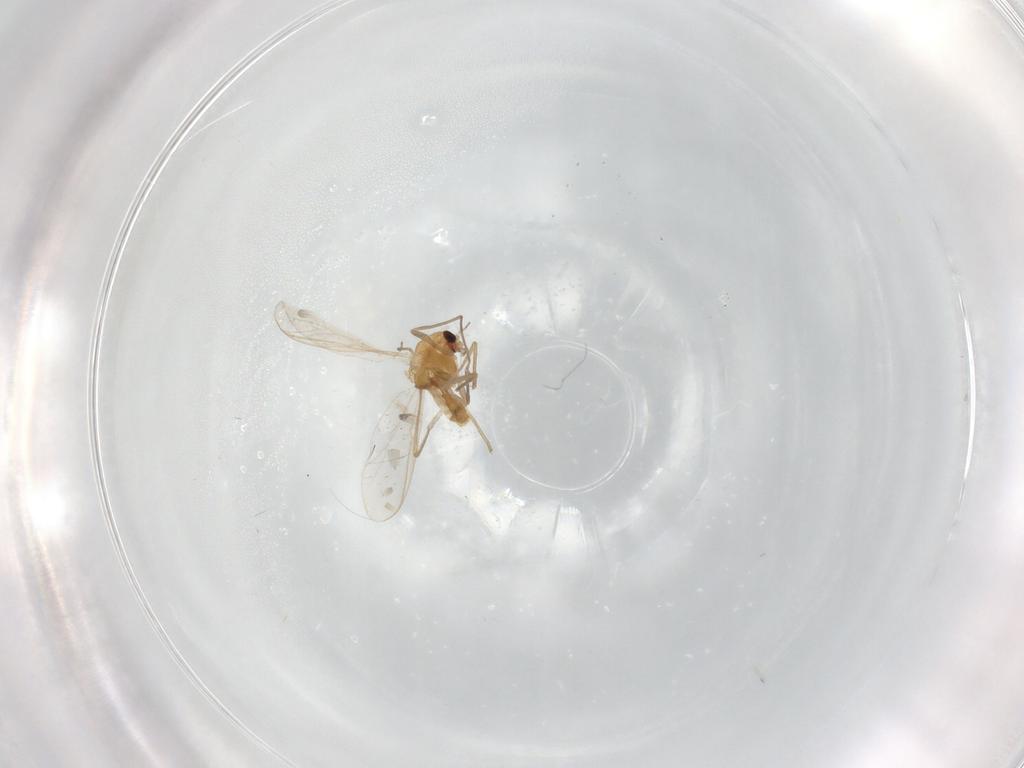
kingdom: Animalia
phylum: Arthropoda
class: Insecta
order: Diptera
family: Chironomidae
